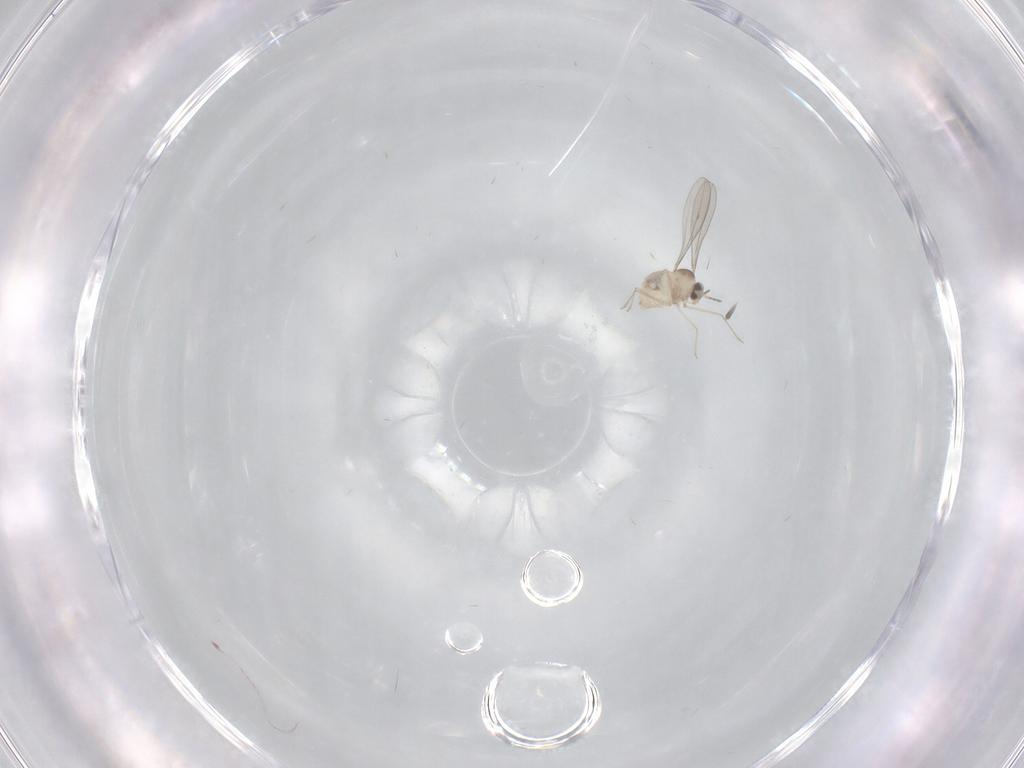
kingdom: Animalia
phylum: Arthropoda
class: Insecta
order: Diptera
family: Cecidomyiidae
